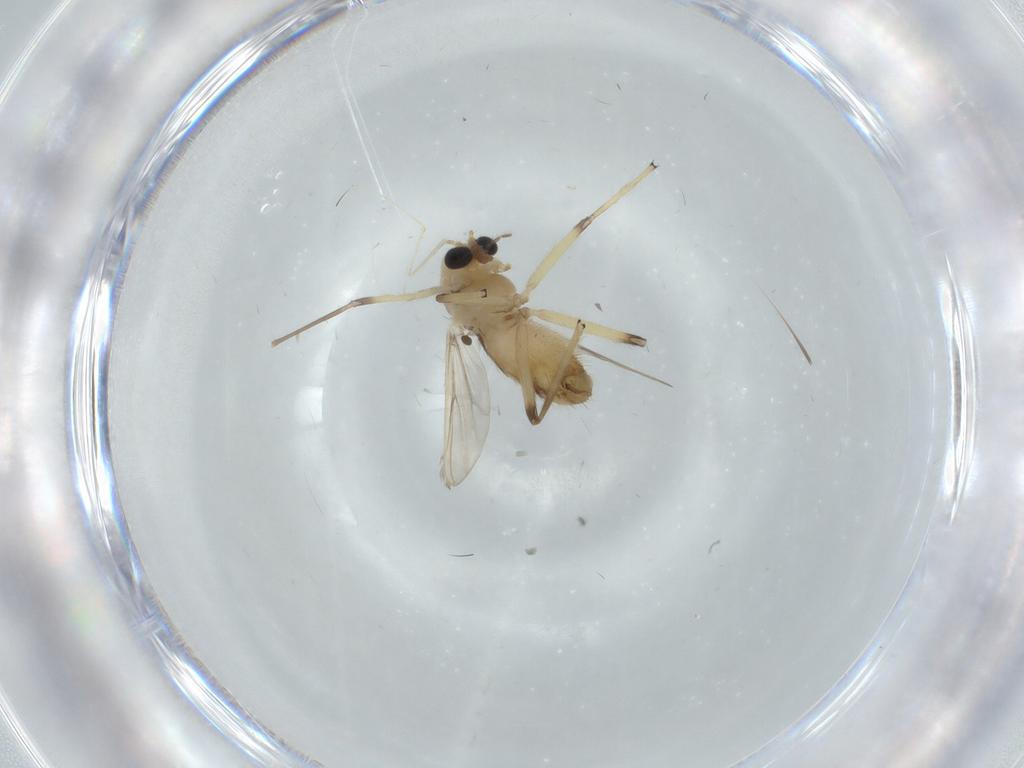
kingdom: Animalia
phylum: Arthropoda
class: Insecta
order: Diptera
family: Chironomidae
